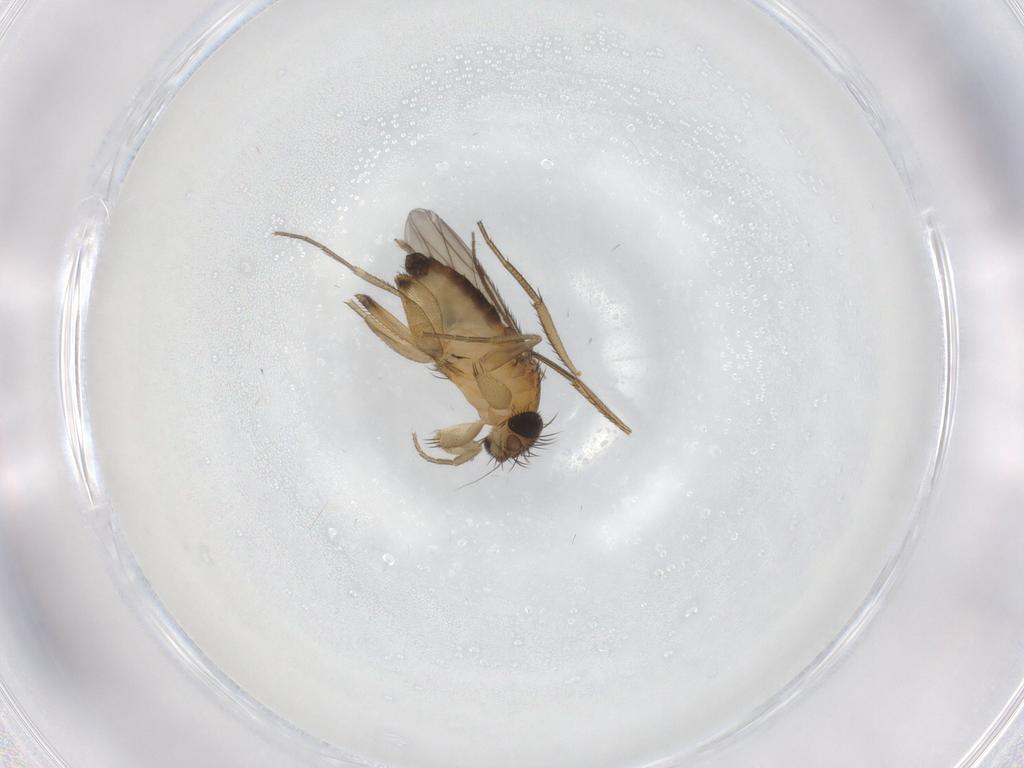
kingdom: Animalia
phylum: Arthropoda
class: Insecta
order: Diptera
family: Phoridae
